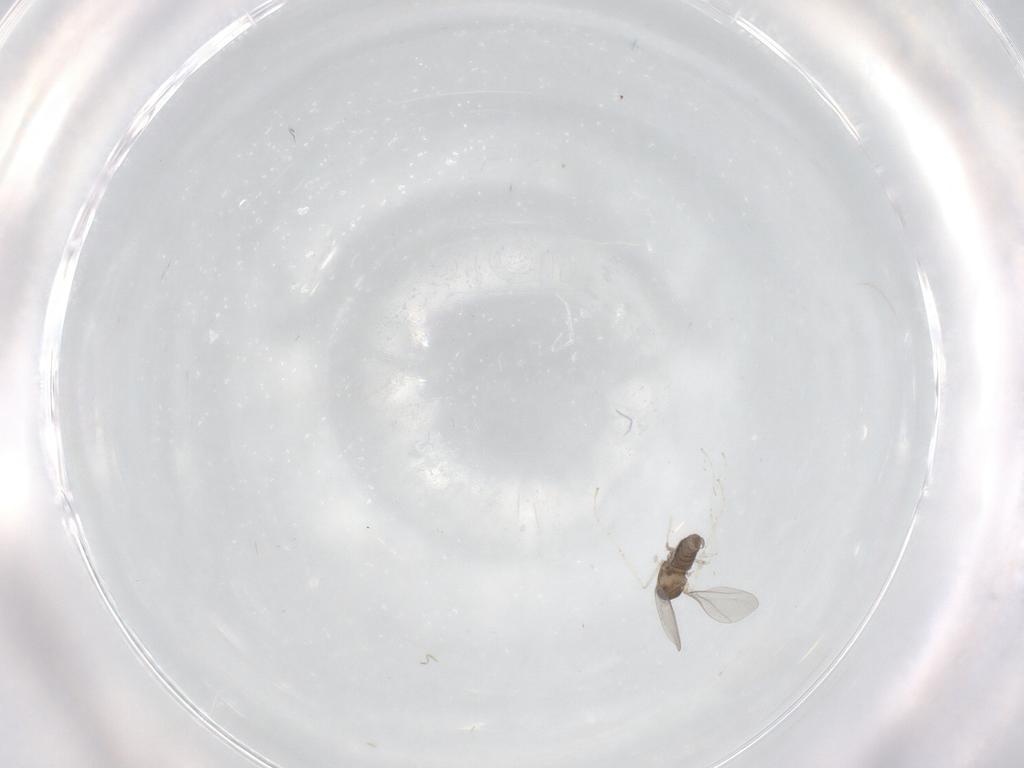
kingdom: Animalia
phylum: Arthropoda
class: Insecta
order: Diptera
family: Cecidomyiidae
